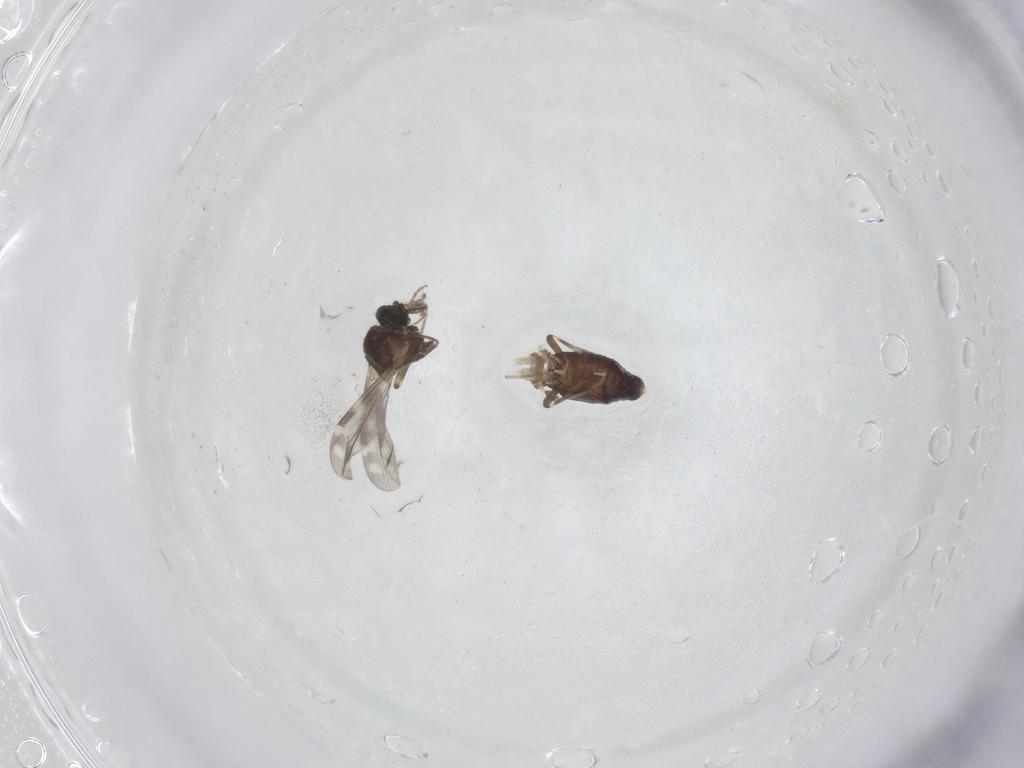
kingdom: Animalia
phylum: Arthropoda
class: Insecta
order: Diptera
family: Ceratopogonidae
